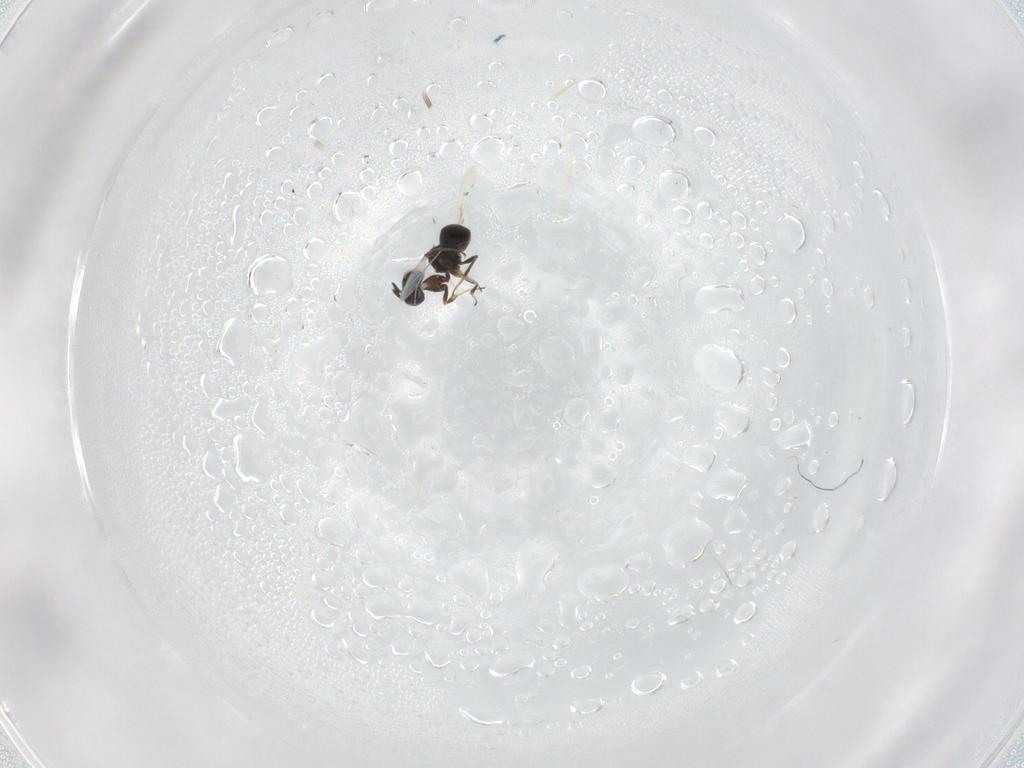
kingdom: Animalia
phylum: Arthropoda
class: Insecta
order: Hymenoptera
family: Scelionidae
